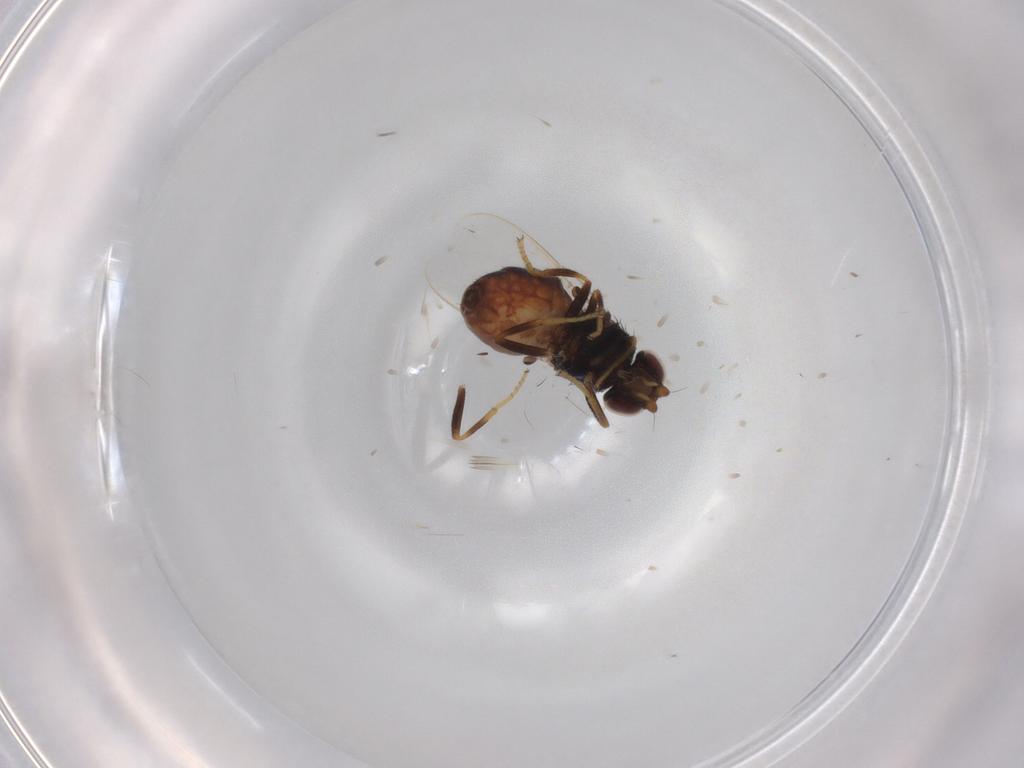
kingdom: Animalia
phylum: Arthropoda
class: Insecta
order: Diptera
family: Chloropidae
